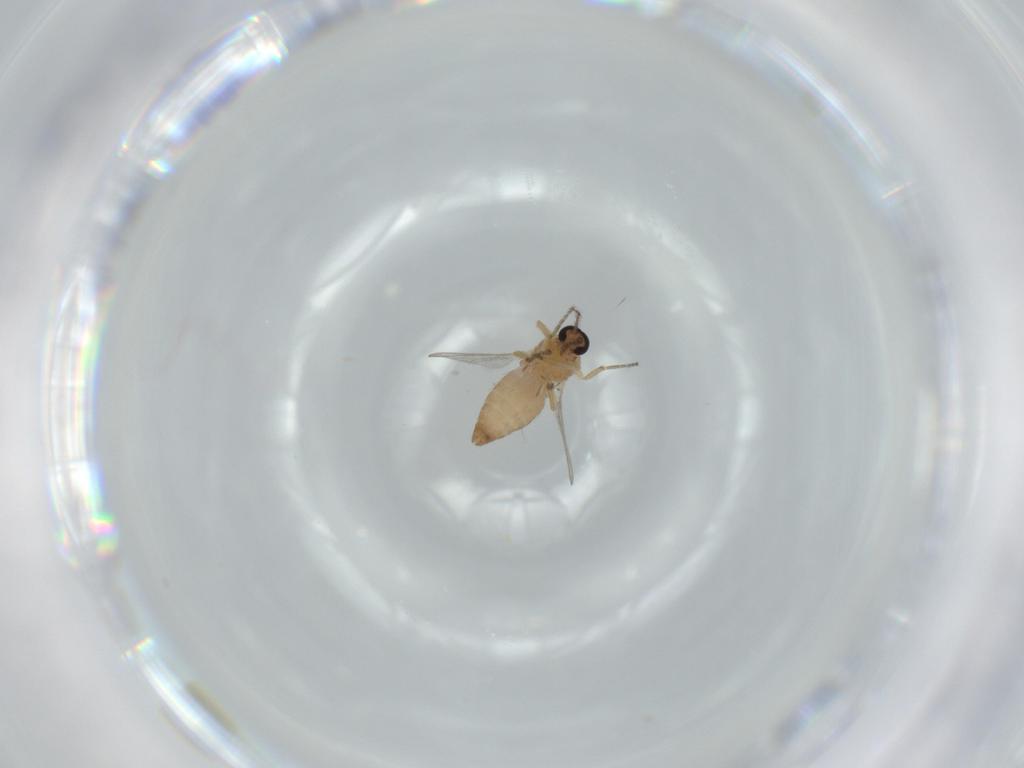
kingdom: Animalia
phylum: Arthropoda
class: Insecta
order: Diptera
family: Ceratopogonidae
